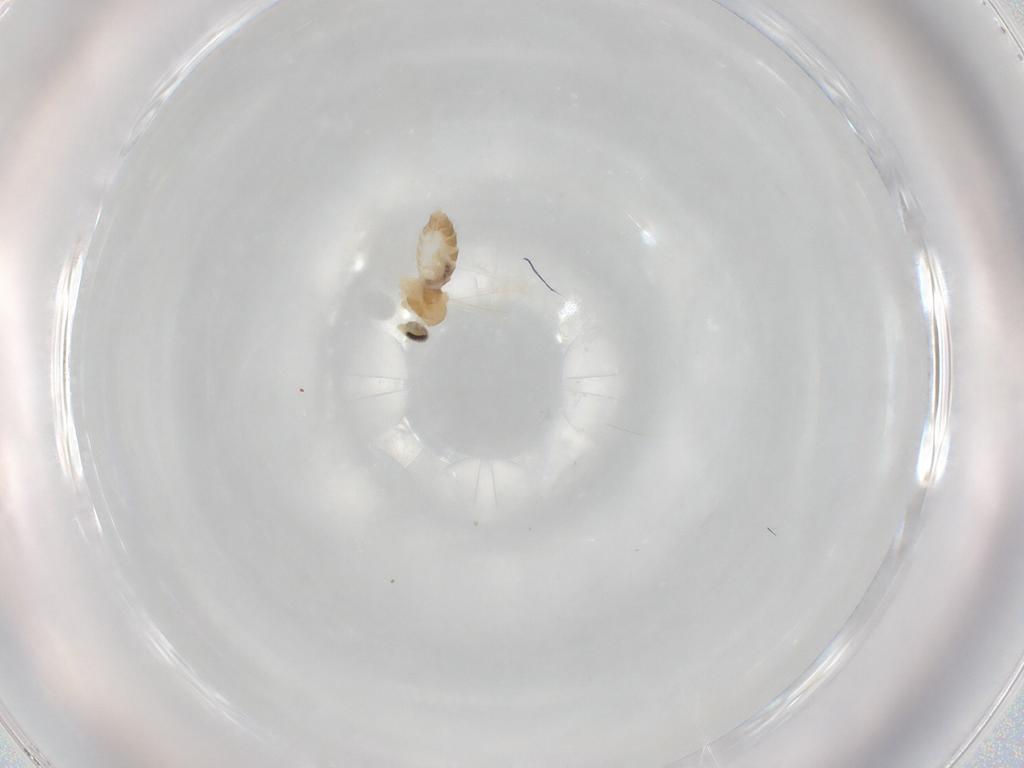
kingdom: Animalia
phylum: Arthropoda
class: Insecta
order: Diptera
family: Cecidomyiidae
